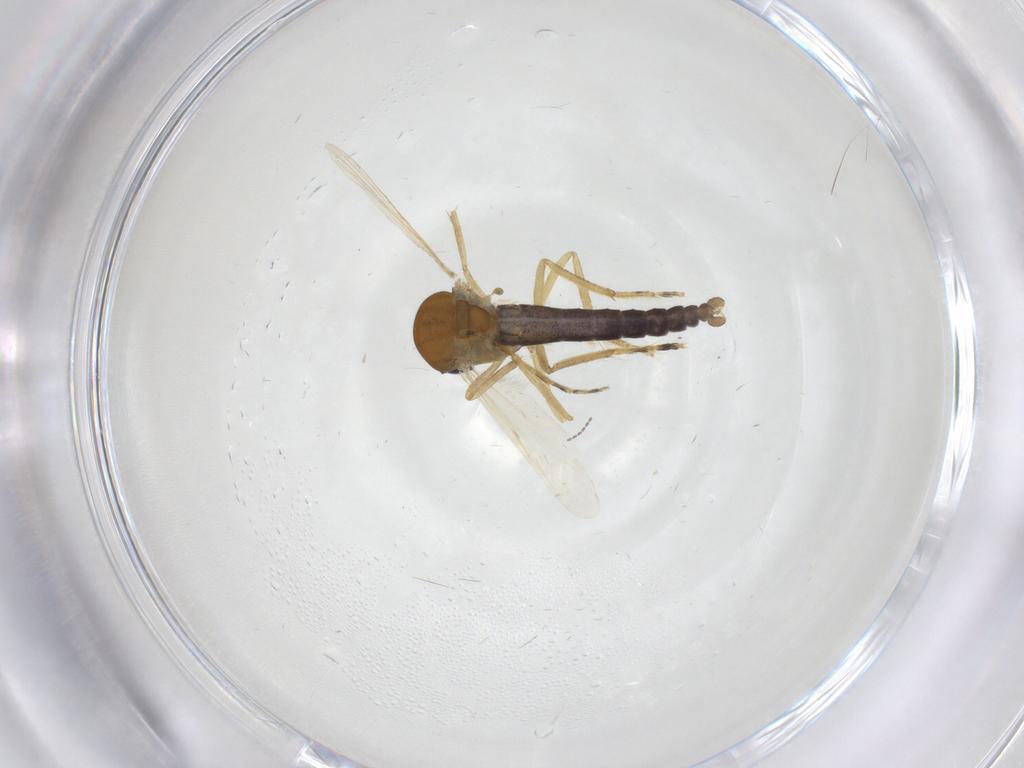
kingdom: Animalia
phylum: Arthropoda
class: Insecta
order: Diptera
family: Ceratopogonidae
